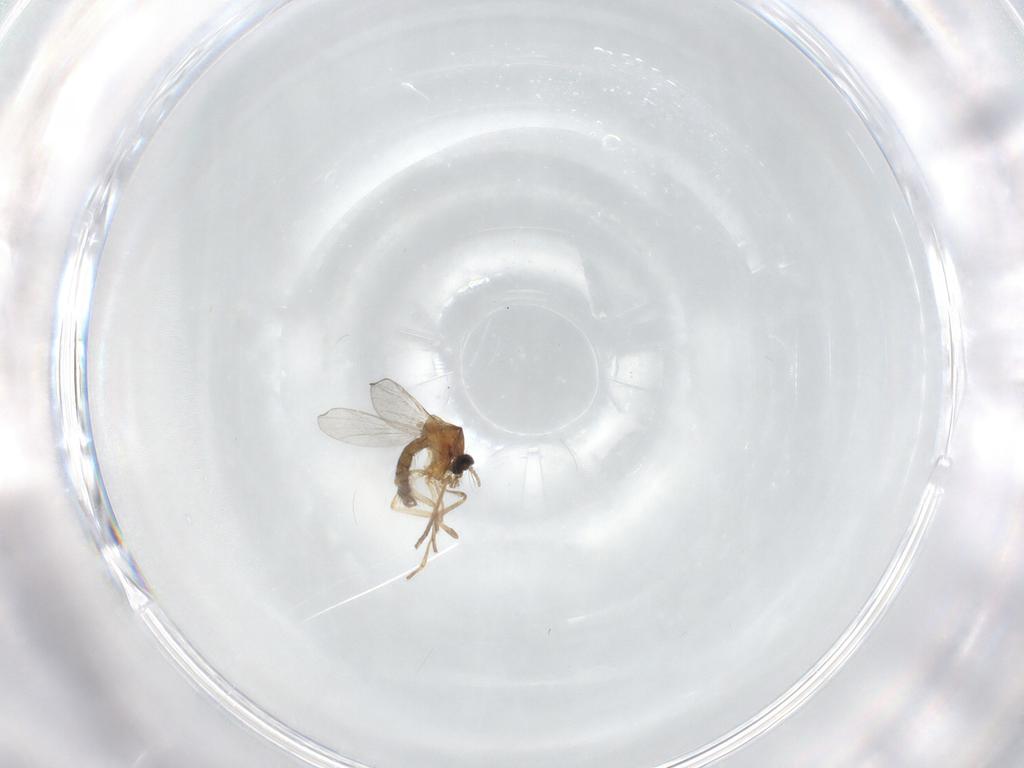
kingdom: Animalia
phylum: Arthropoda
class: Insecta
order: Diptera
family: Ceratopogonidae
